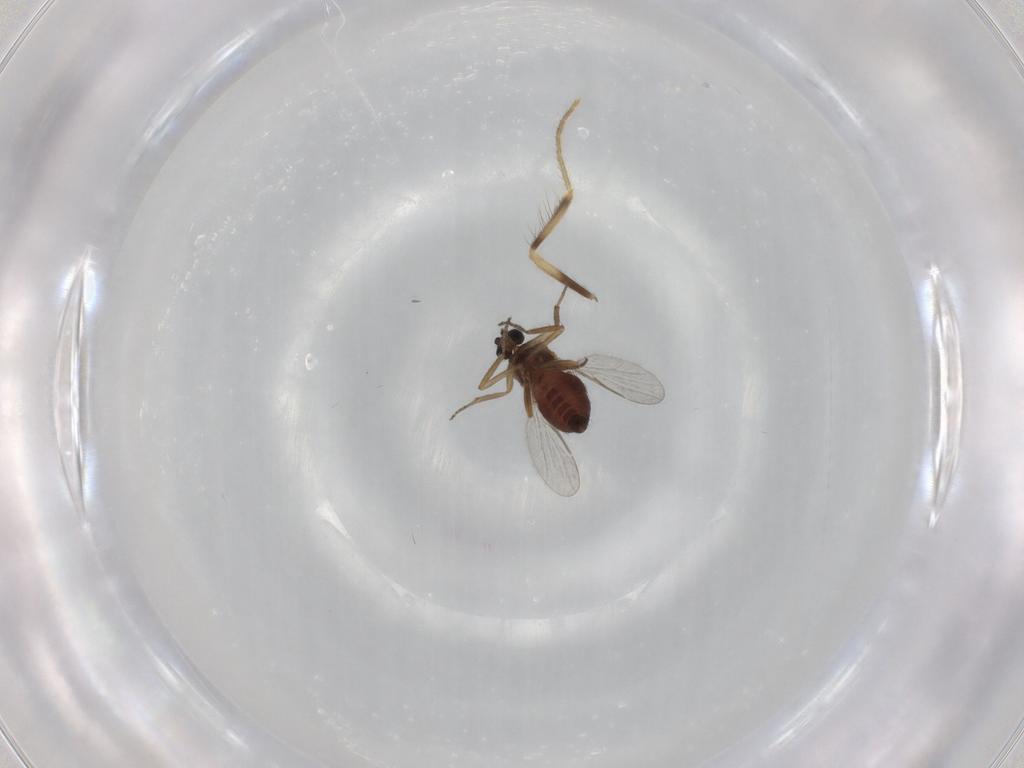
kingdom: Animalia
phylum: Arthropoda
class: Insecta
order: Diptera
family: Corethrellidae
